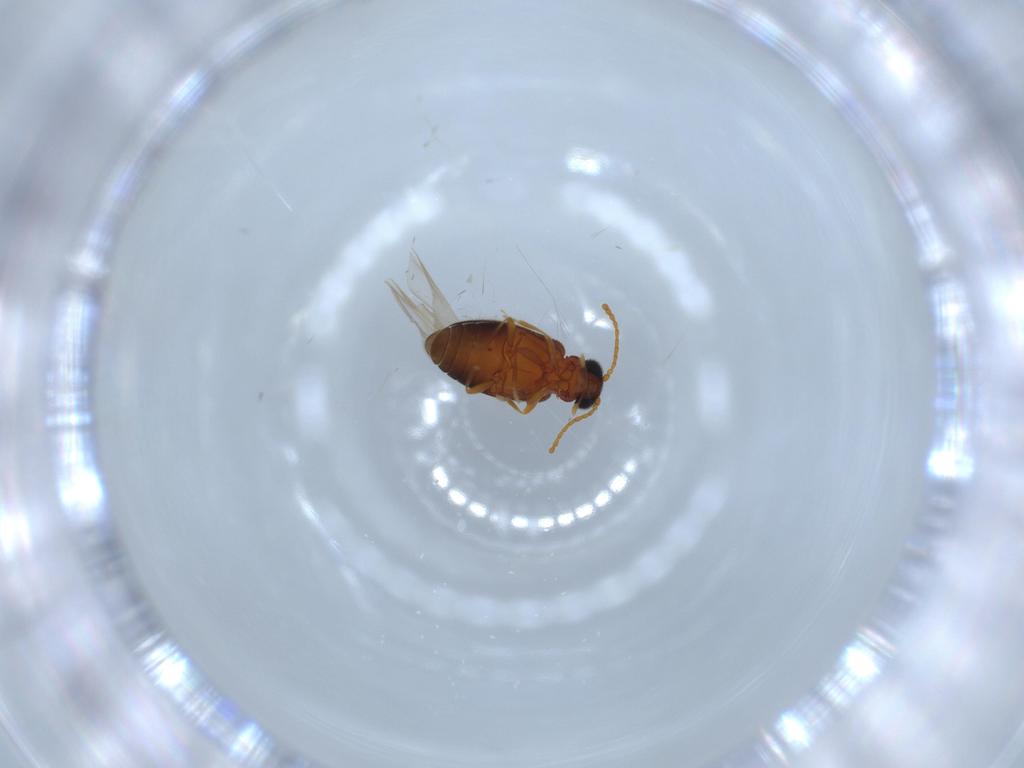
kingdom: Animalia
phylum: Arthropoda
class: Insecta
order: Coleoptera
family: Aderidae
